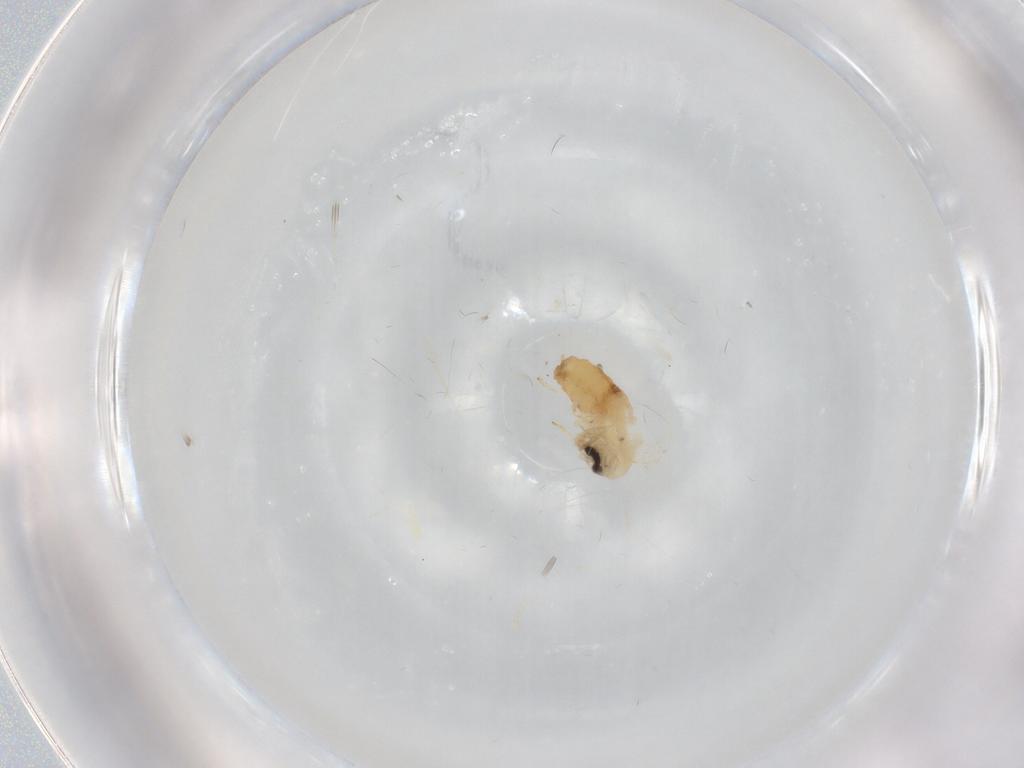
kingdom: Animalia
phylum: Arthropoda
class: Insecta
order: Diptera
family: Psychodidae
